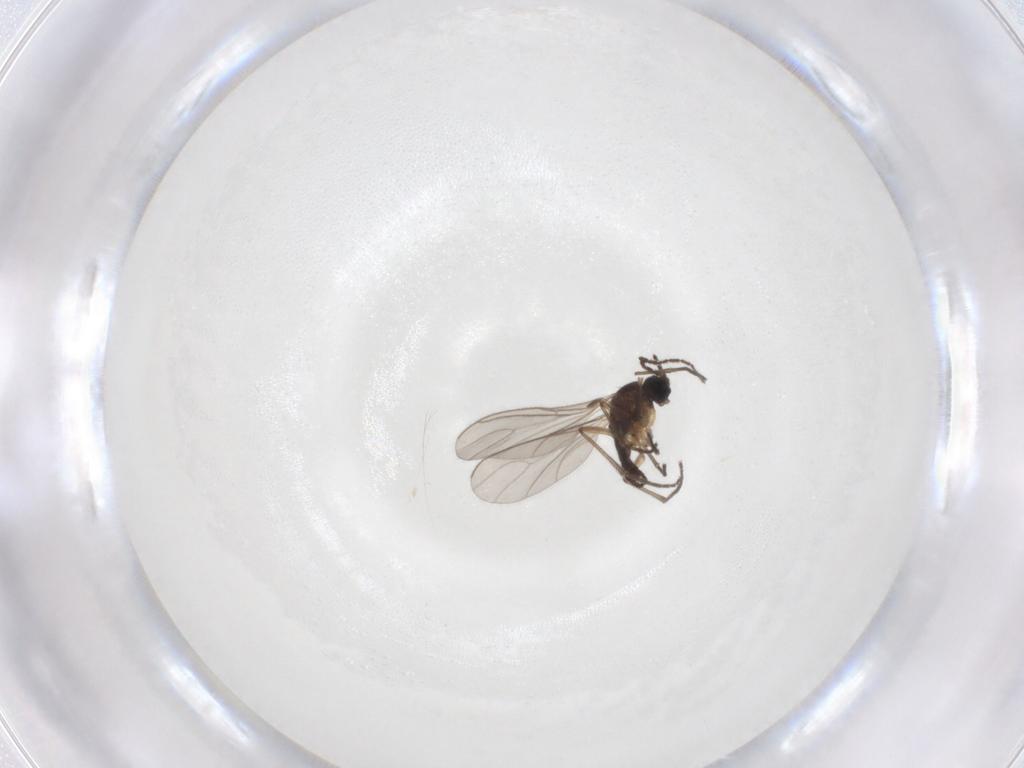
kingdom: Animalia
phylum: Arthropoda
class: Insecta
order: Diptera
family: Sciaridae
